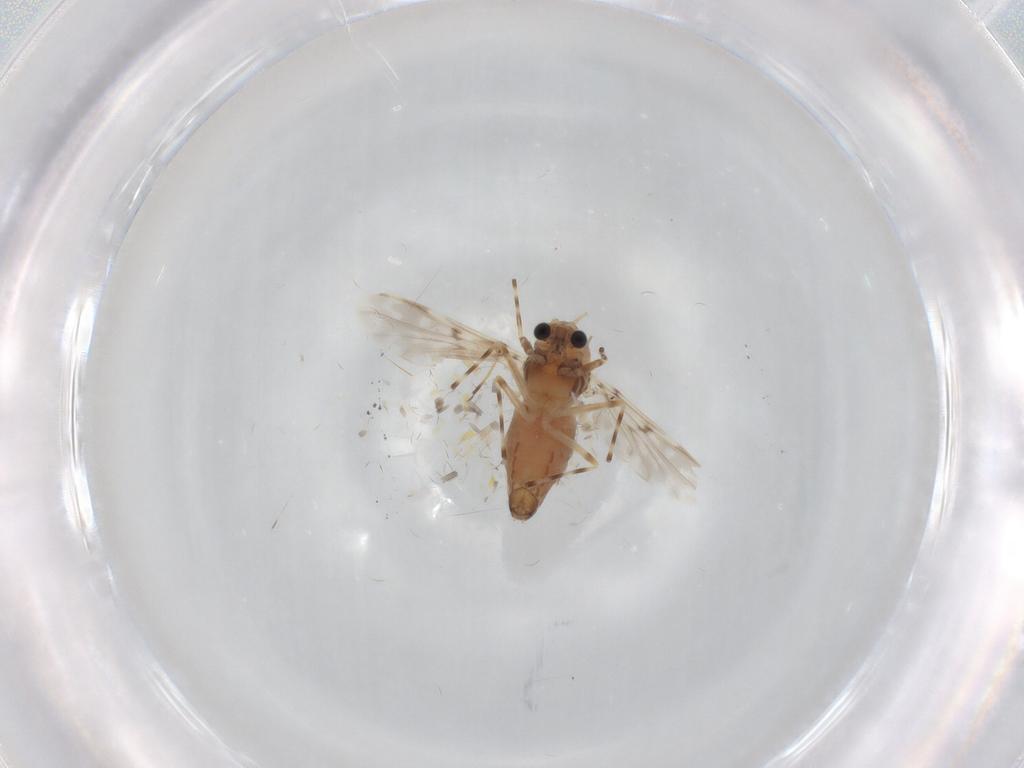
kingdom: Animalia
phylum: Arthropoda
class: Insecta
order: Diptera
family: Chironomidae
